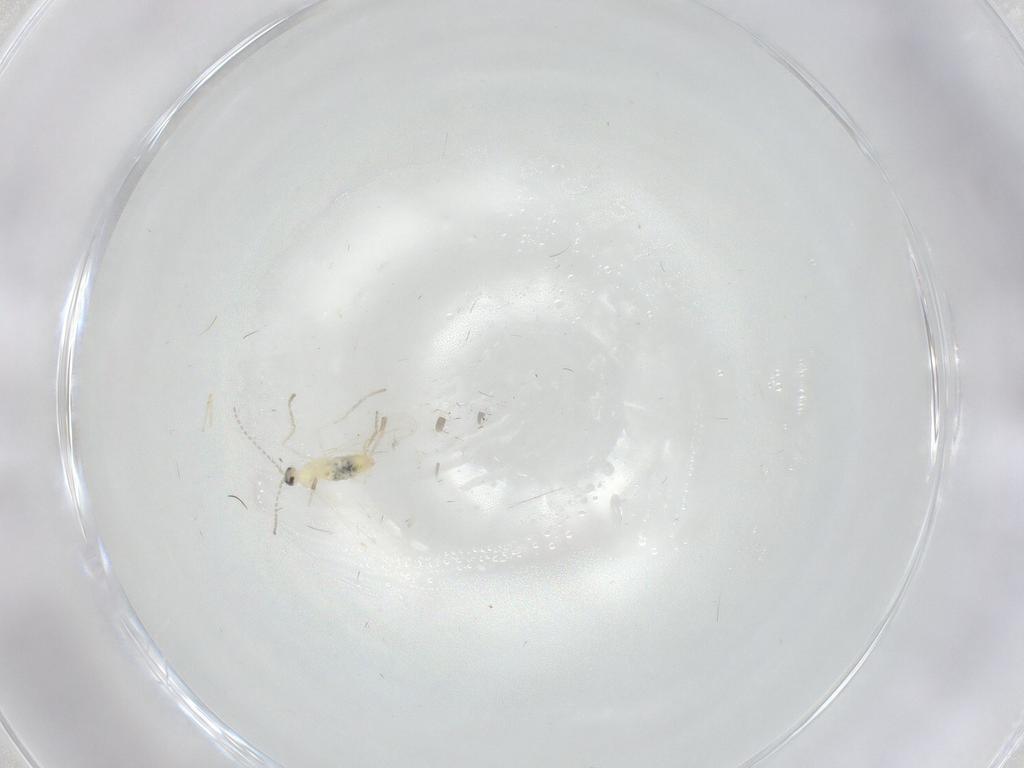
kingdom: Animalia
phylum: Arthropoda
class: Insecta
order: Diptera
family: Cecidomyiidae
